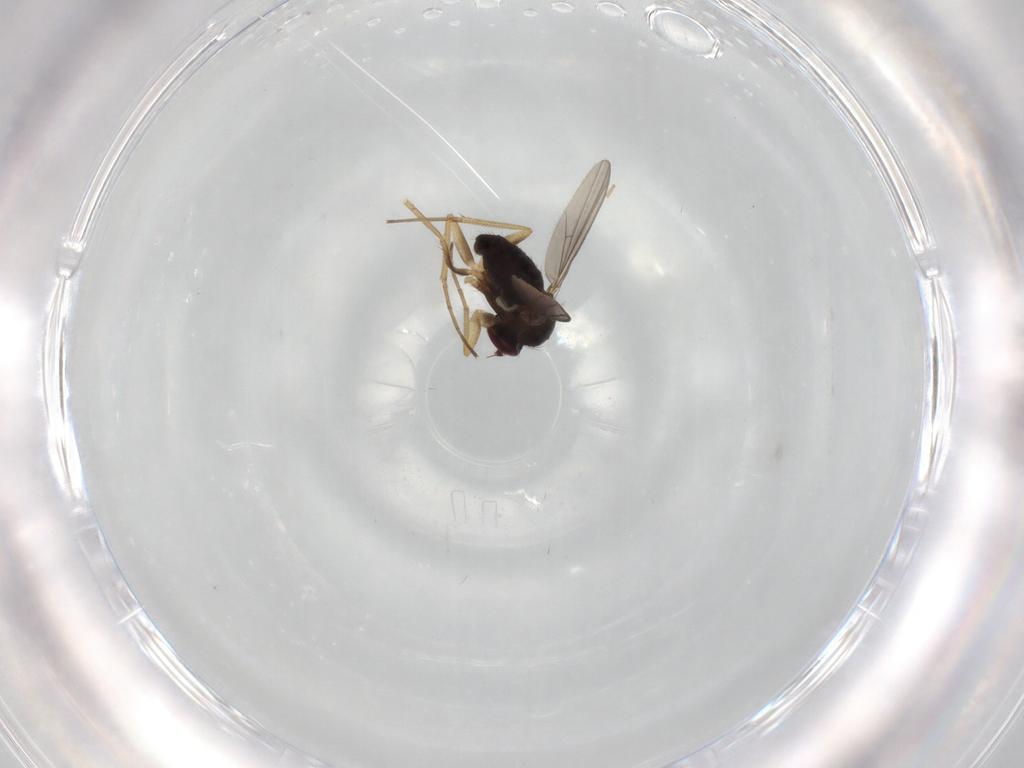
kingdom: Animalia
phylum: Arthropoda
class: Insecta
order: Diptera
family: Dolichopodidae
